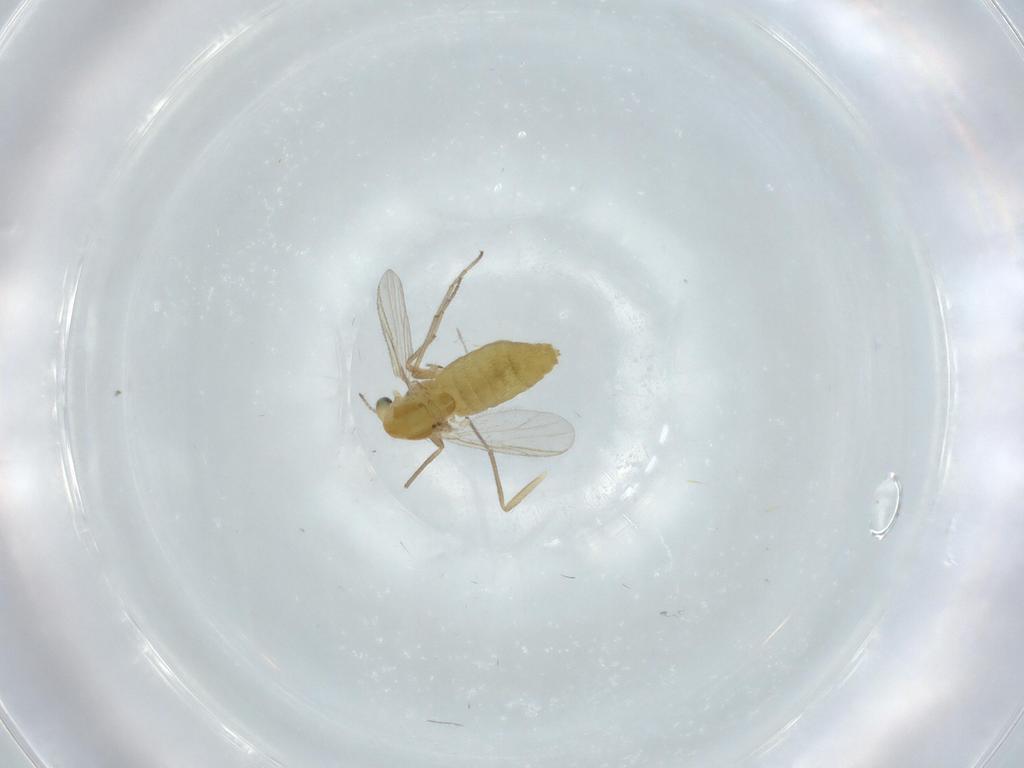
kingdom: Animalia
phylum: Arthropoda
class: Insecta
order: Diptera
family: Chironomidae
